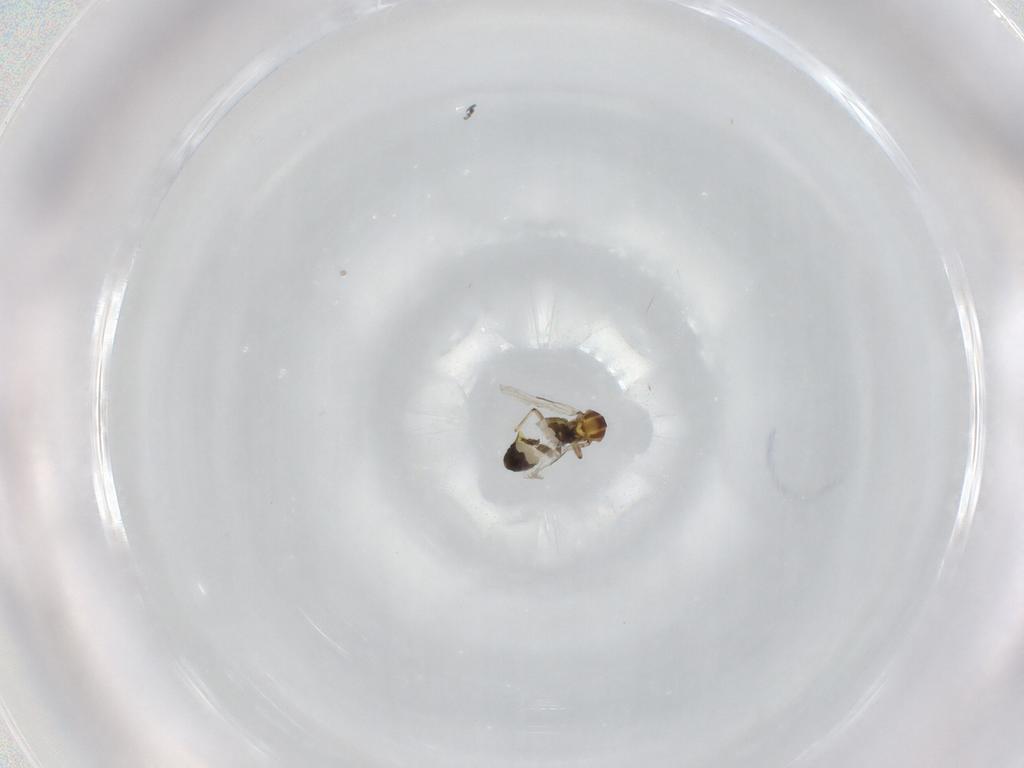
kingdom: Animalia
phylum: Arthropoda
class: Insecta
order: Diptera
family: Ceratopogonidae
